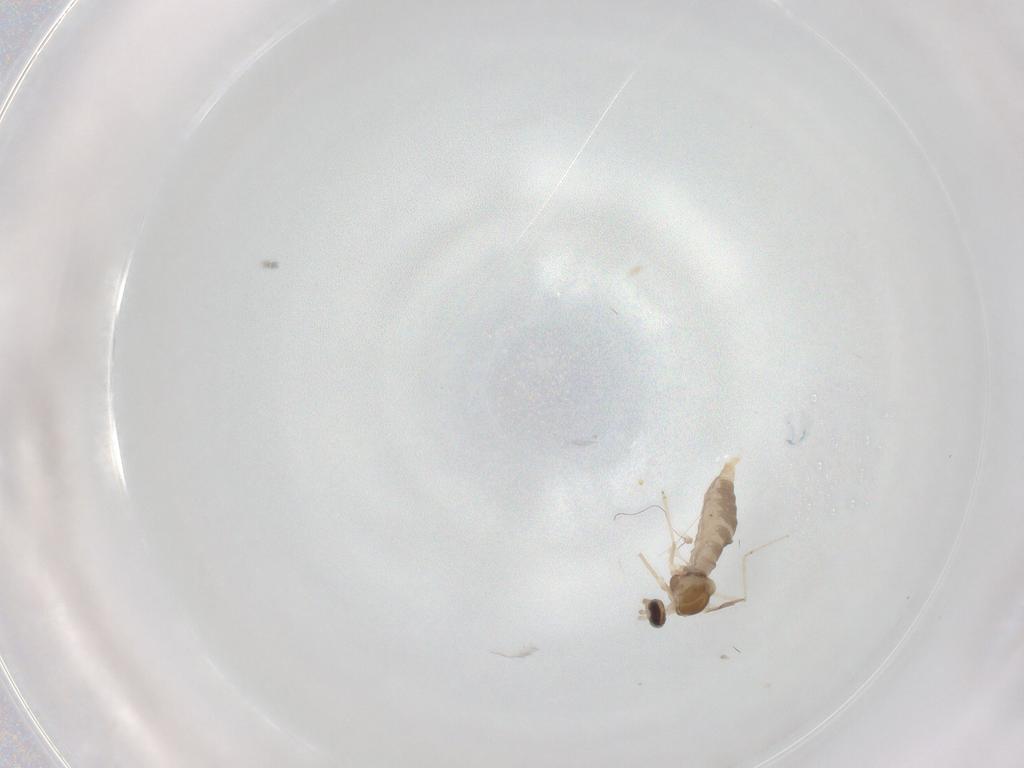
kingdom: Animalia
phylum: Arthropoda
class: Insecta
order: Diptera
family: Cecidomyiidae
